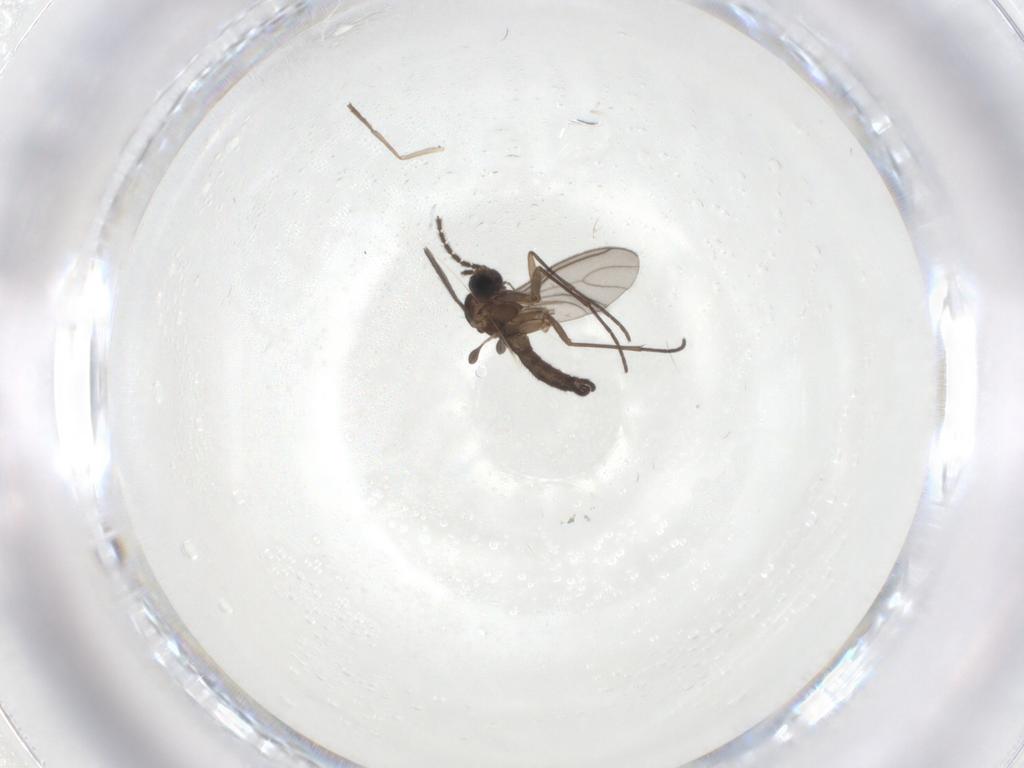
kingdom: Animalia
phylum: Arthropoda
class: Insecta
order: Diptera
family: Sciaridae
